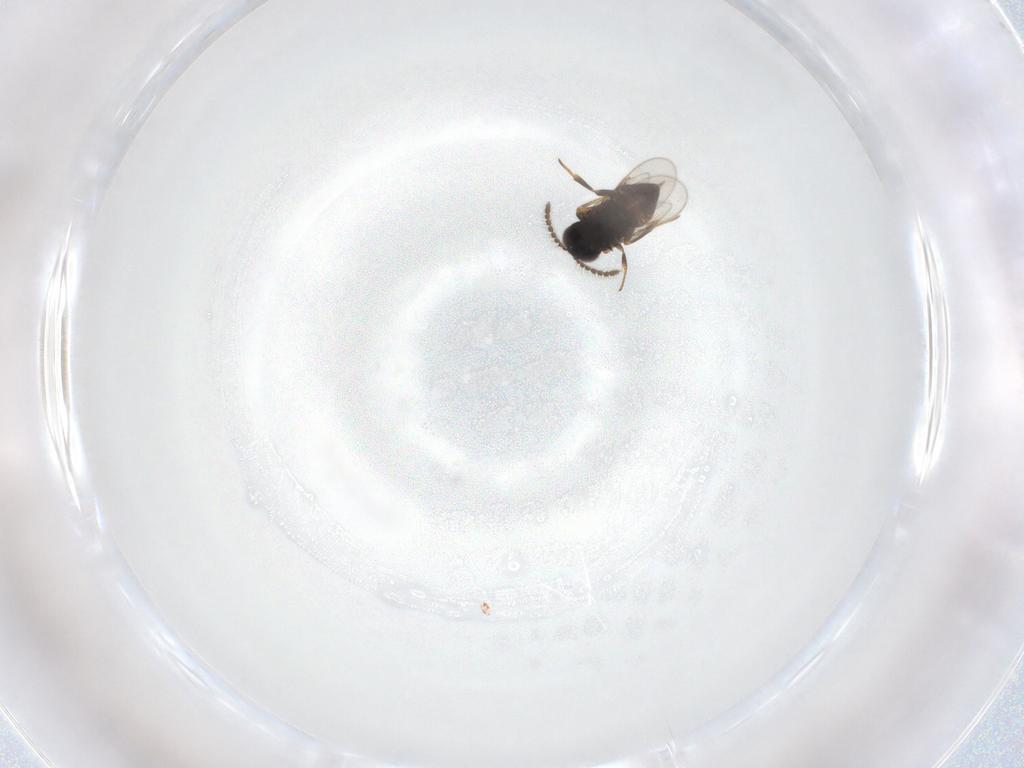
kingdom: Animalia
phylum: Arthropoda
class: Insecta
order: Hymenoptera
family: Encyrtidae
